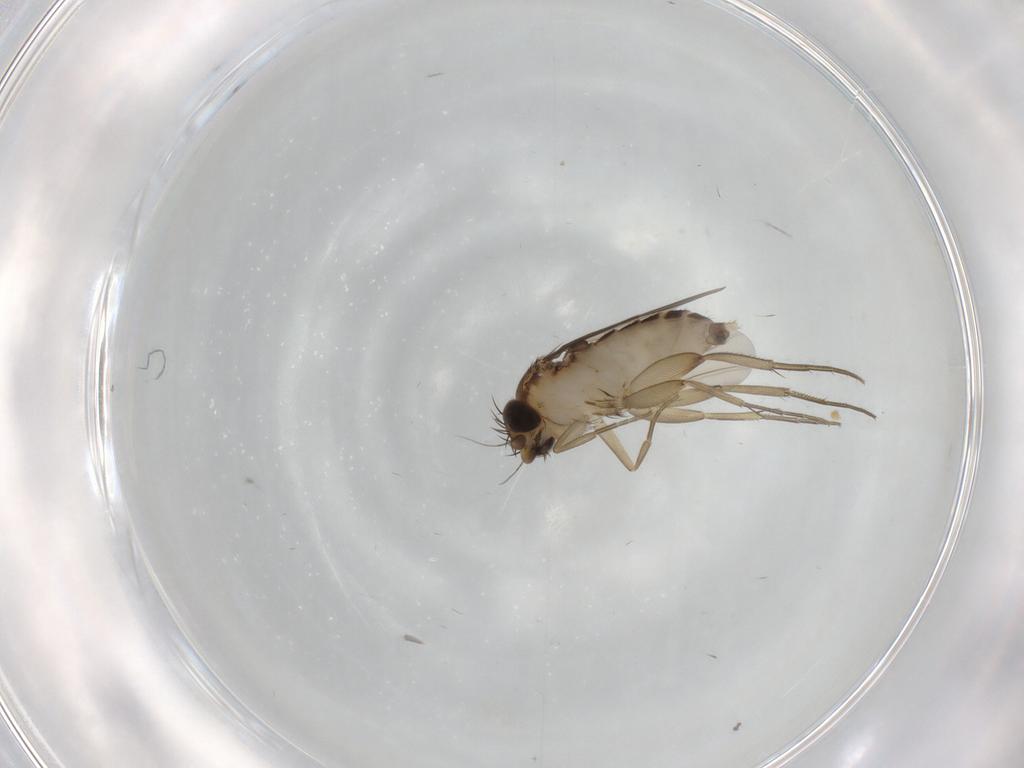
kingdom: Animalia
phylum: Arthropoda
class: Insecta
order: Diptera
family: Phoridae
